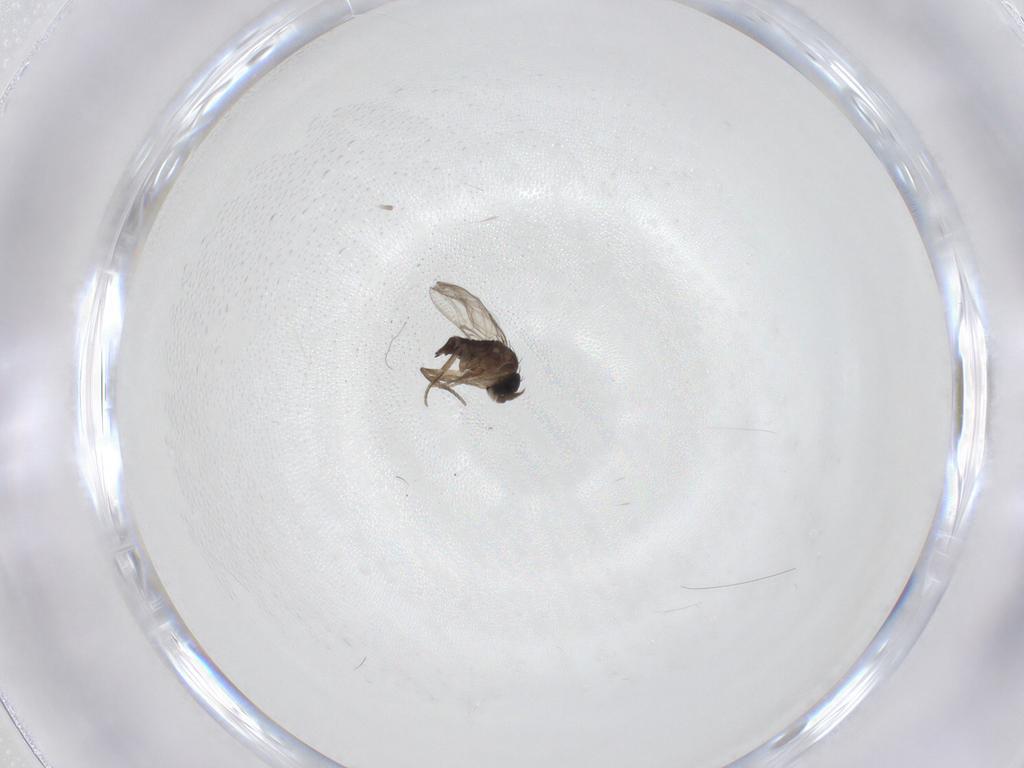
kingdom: Animalia
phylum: Arthropoda
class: Insecta
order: Diptera
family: Phoridae
